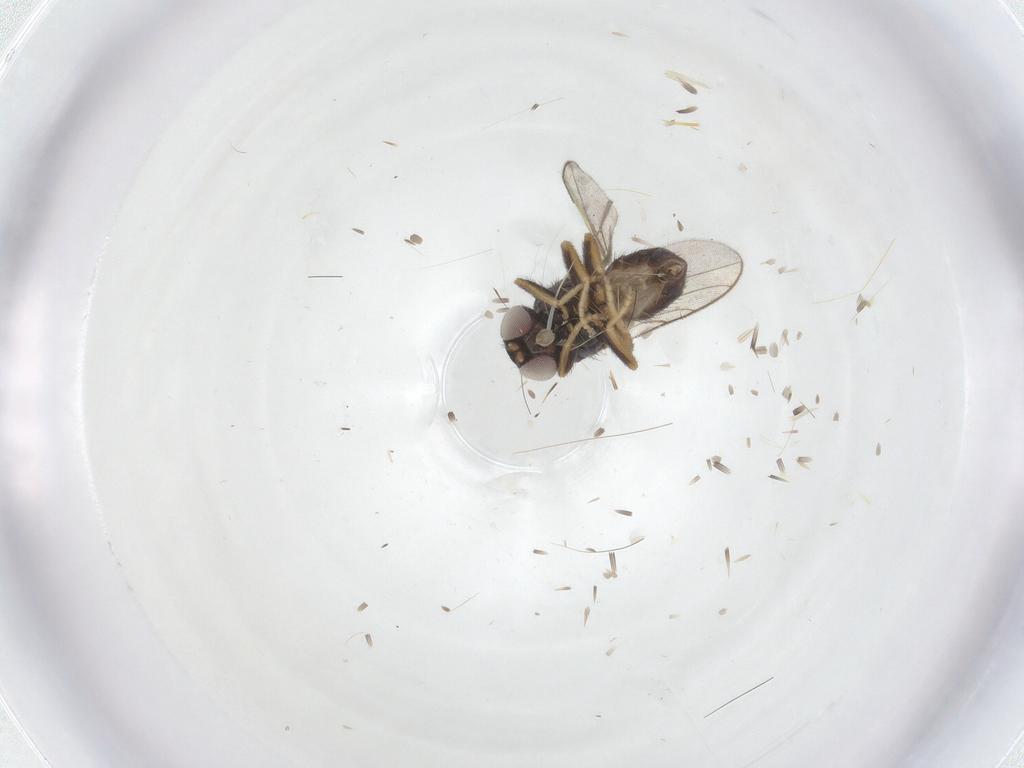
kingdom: Animalia
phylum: Arthropoda
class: Insecta
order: Diptera
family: Chloropidae
